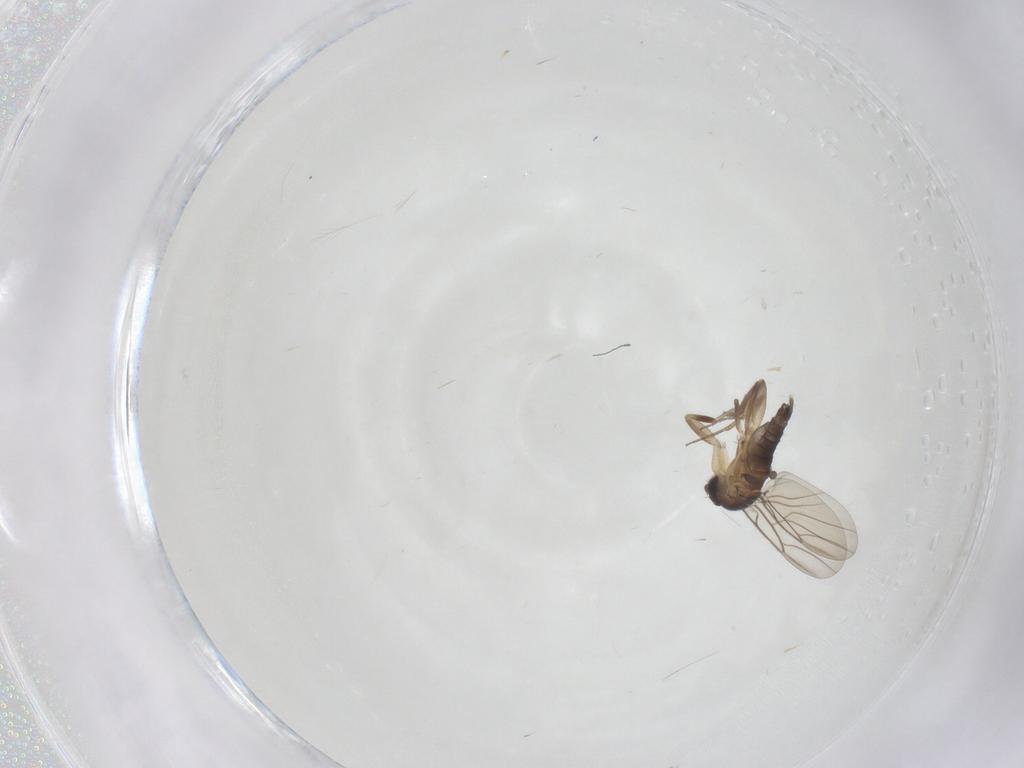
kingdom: Animalia
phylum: Arthropoda
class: Insecta
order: Diptera
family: Phoridae
